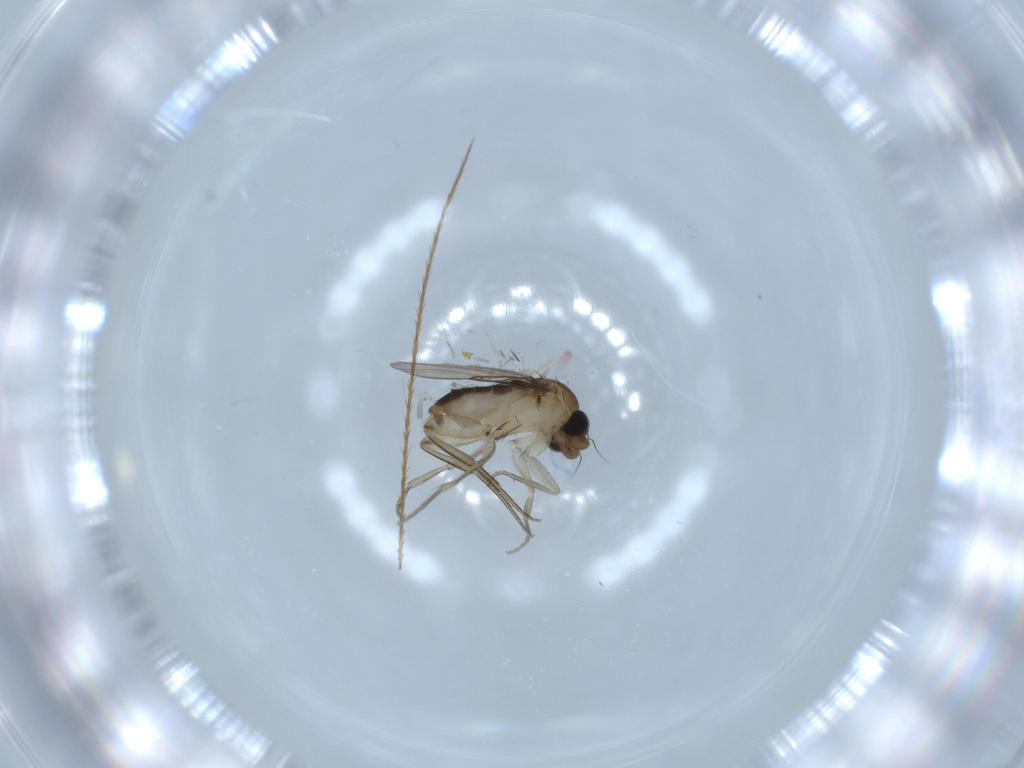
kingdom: Animalia
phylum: Arthropoda
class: Insecta
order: Diptera
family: Phoridae
